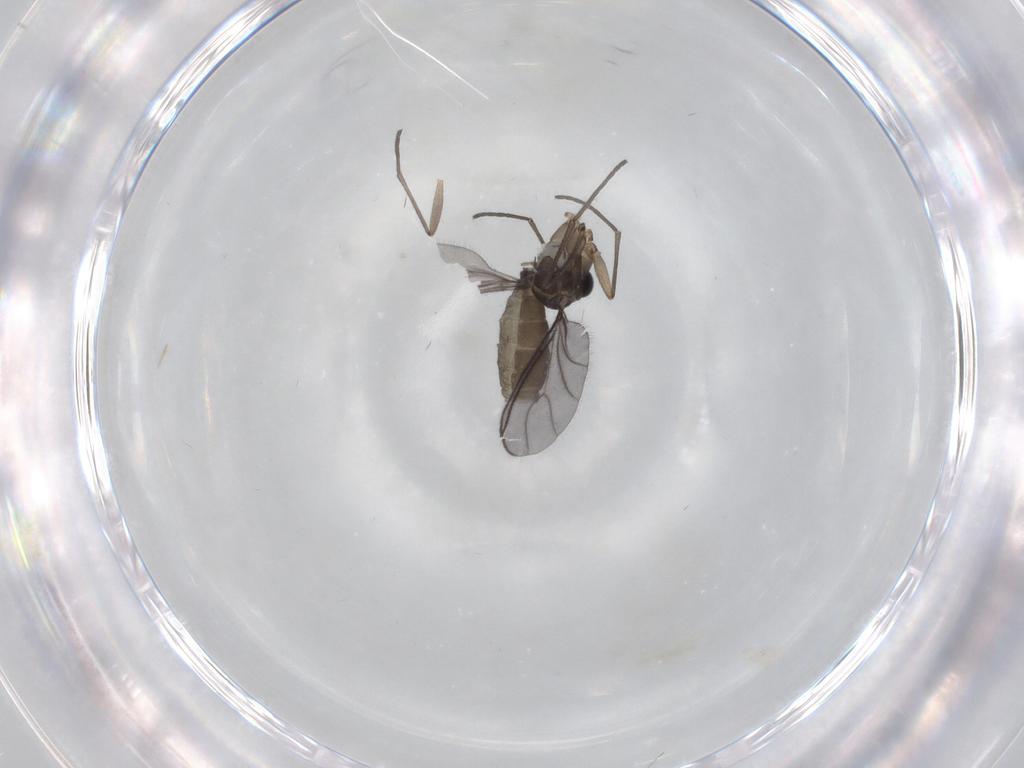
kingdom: Animalia
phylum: Arthropoda
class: Insecta
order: Diptera
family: Sciaridae
